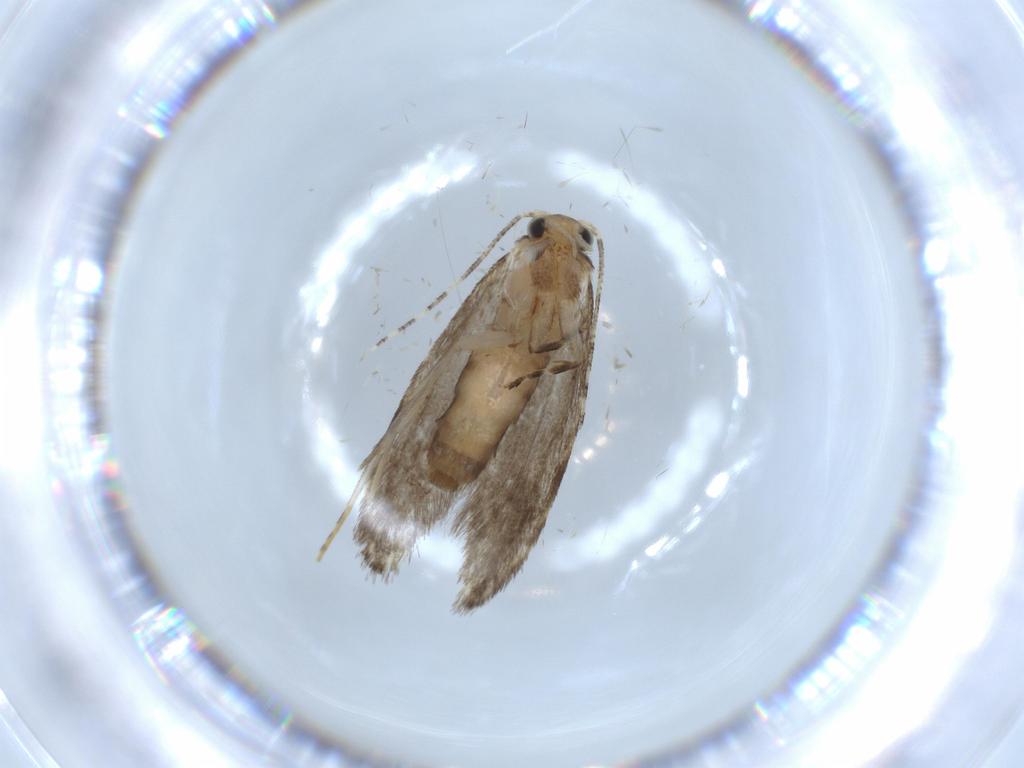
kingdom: Animalia
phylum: Arthropoda
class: Insecta
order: Lepidoptera
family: Tineidae
